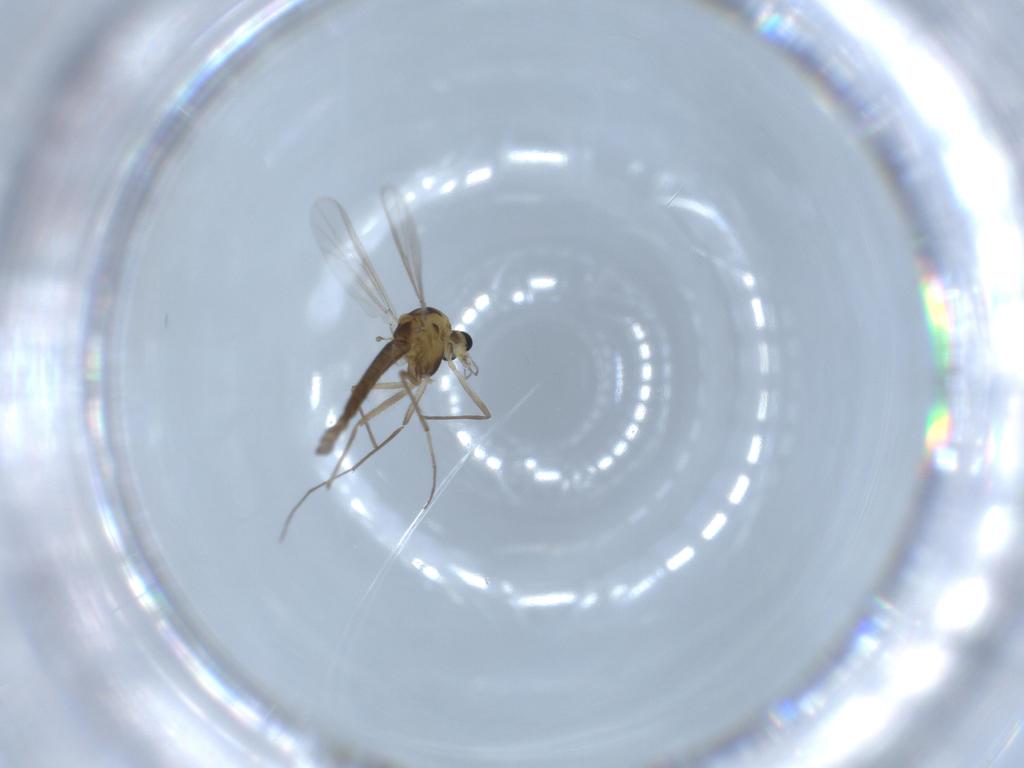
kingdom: Animalia
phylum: Arthropoda
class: Insecta
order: Diptera
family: Chironomidae
